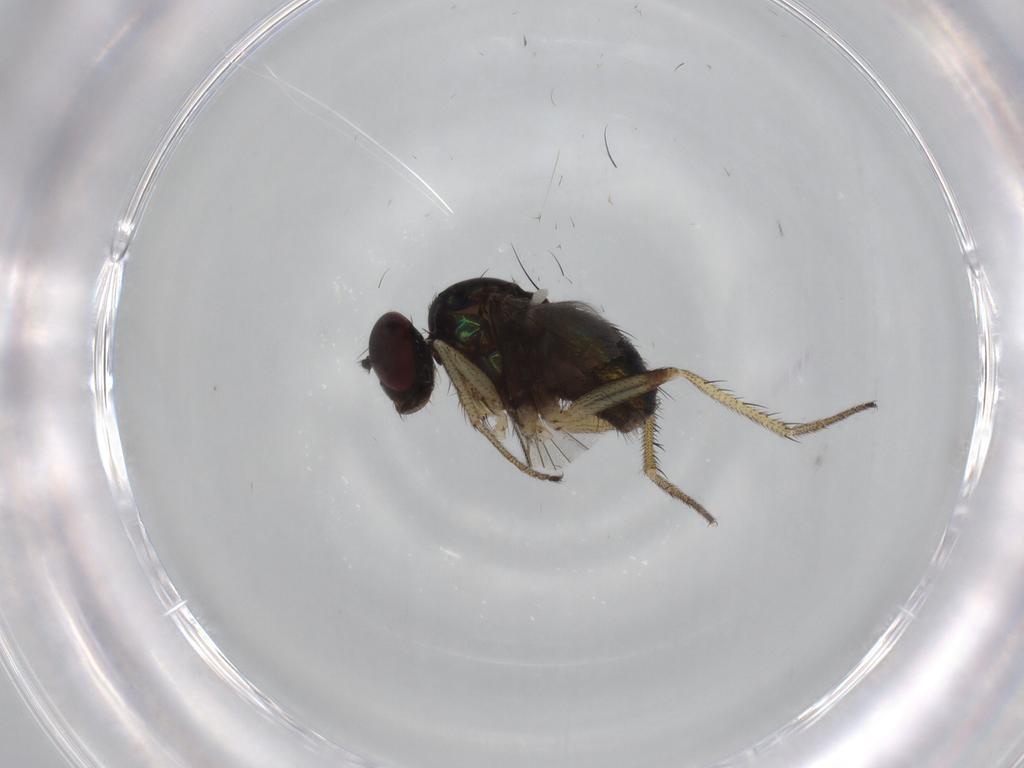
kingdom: Animalia
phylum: Arthropoda
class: Insecta
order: Diptera
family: Dolichopodidae
